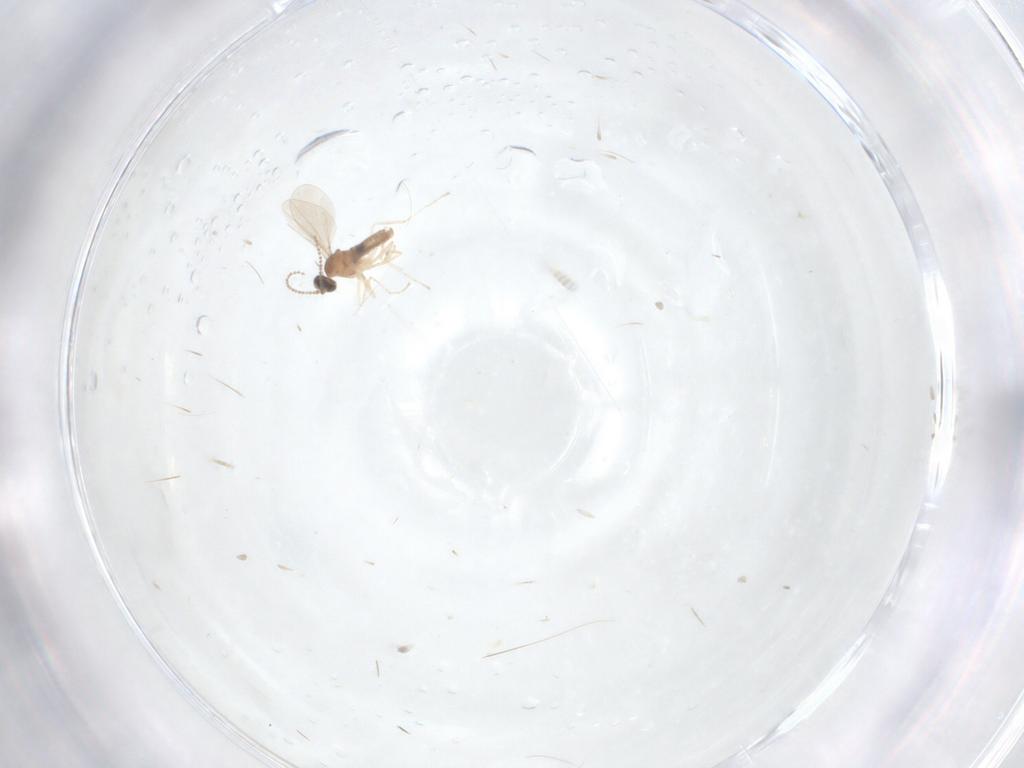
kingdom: Animalia
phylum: Arthropoda
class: Insecta
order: Diptera
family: Cecidomyiidae
